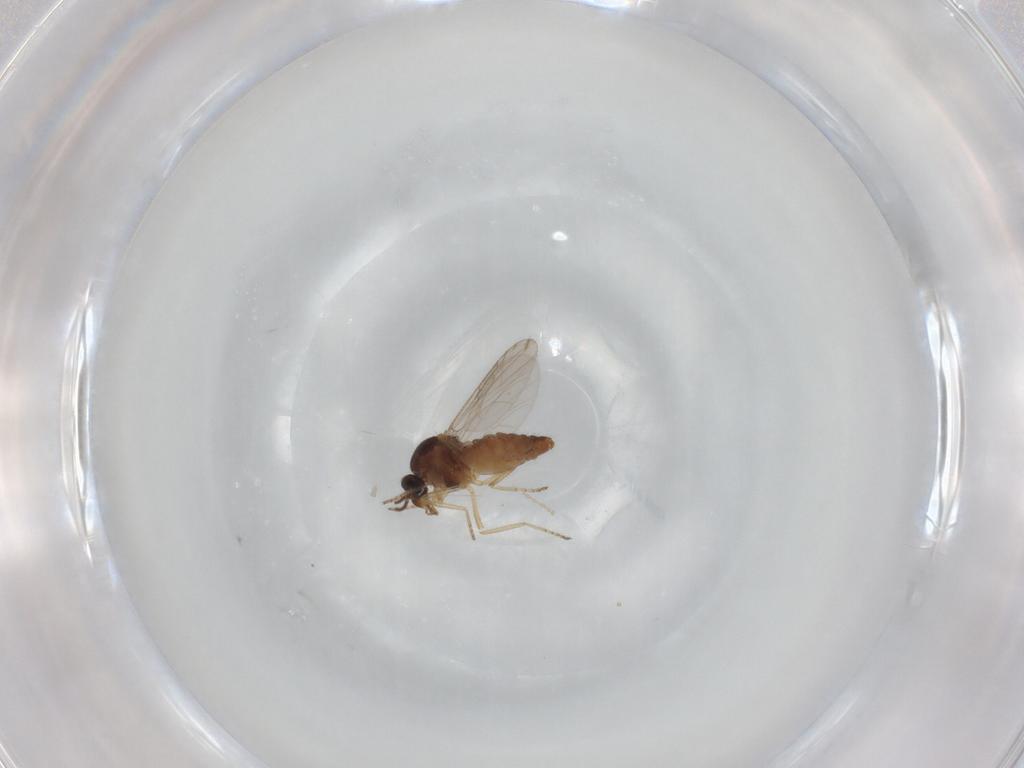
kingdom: Animalia
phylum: Arthropoda
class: Insecta
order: Diptera
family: Ceratopogonidae
